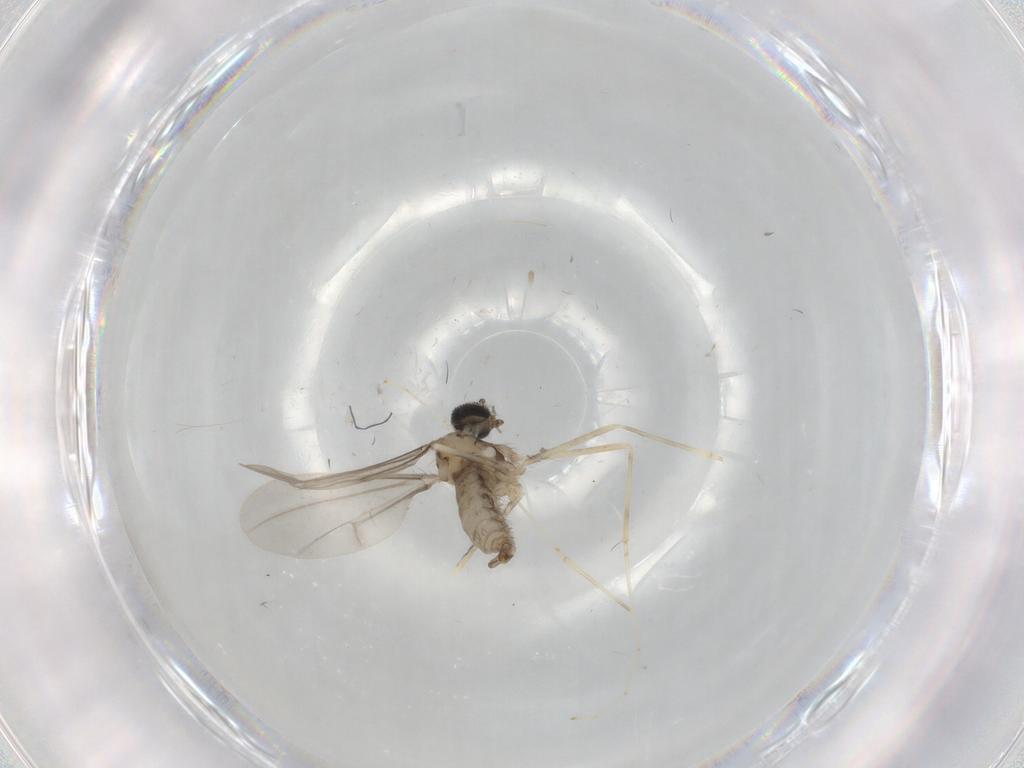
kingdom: Animalia
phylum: Arthropoda
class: Insecta
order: Diptera
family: Cecidomyiidae
